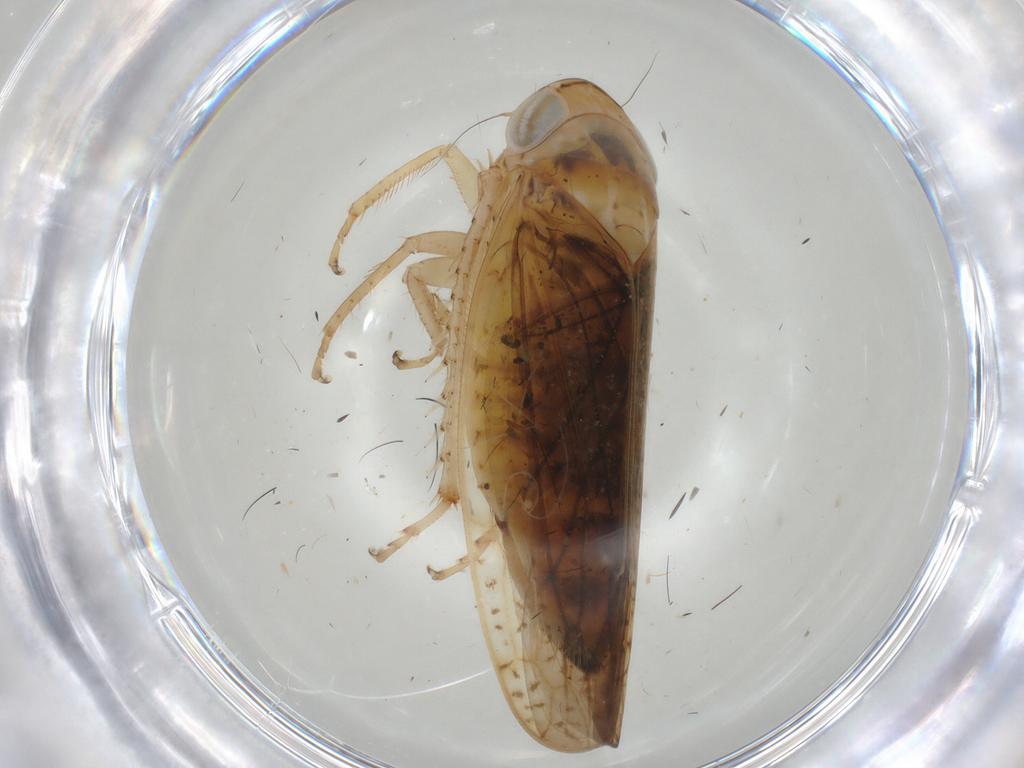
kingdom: Animalia
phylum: Arthropoda
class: Insecta
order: Hemiptera
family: Cicadellidae
